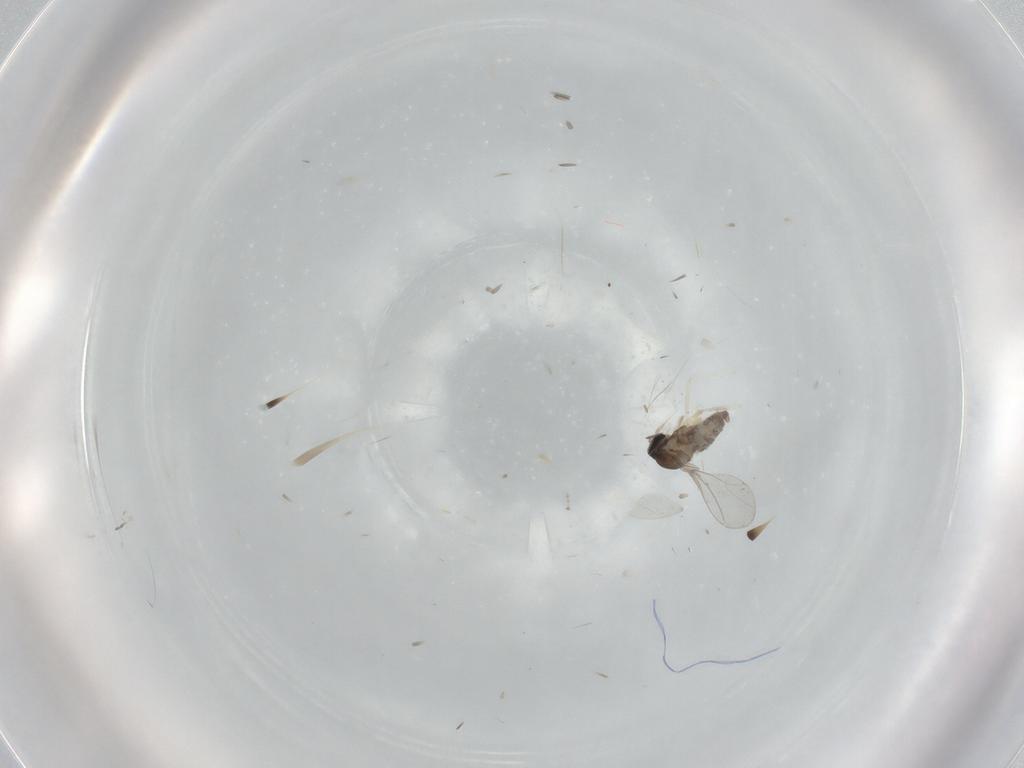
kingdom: Animalia
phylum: Arthropoda
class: Insecta
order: Diptera
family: Cecidomyiidae
